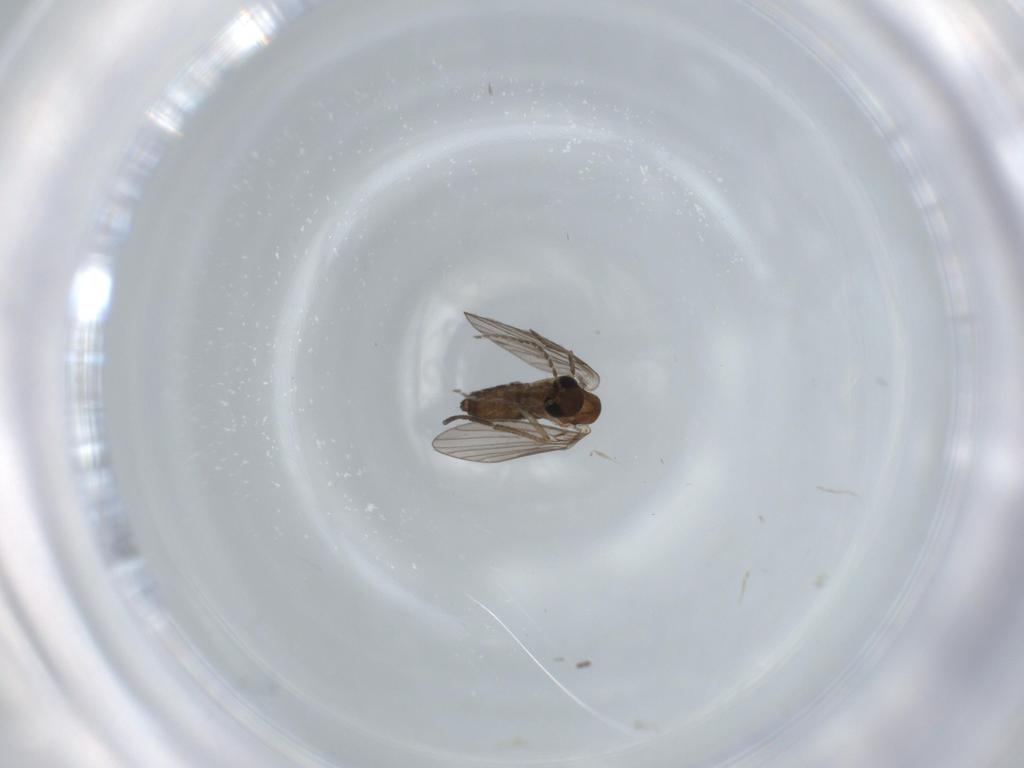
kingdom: Animalia
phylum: Arthropoda
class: Insecta
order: Diptera
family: Psychodidae
